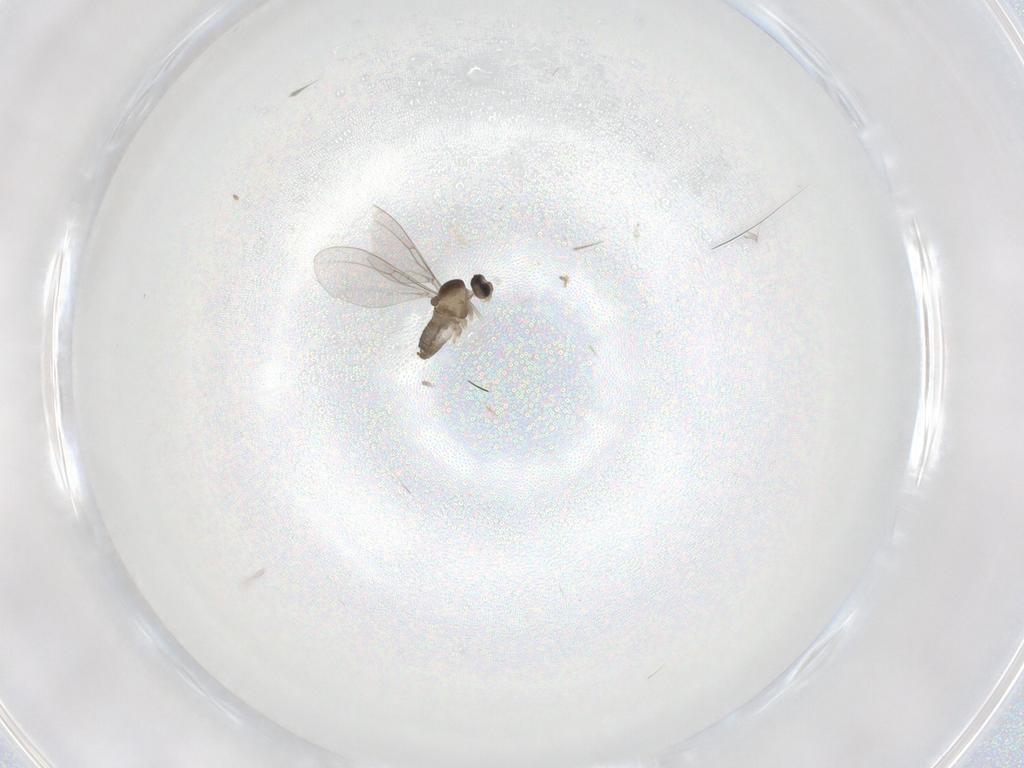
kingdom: Animalia
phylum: Arthropoda
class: Insecta
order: Diptera
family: Cecidomyiidae
